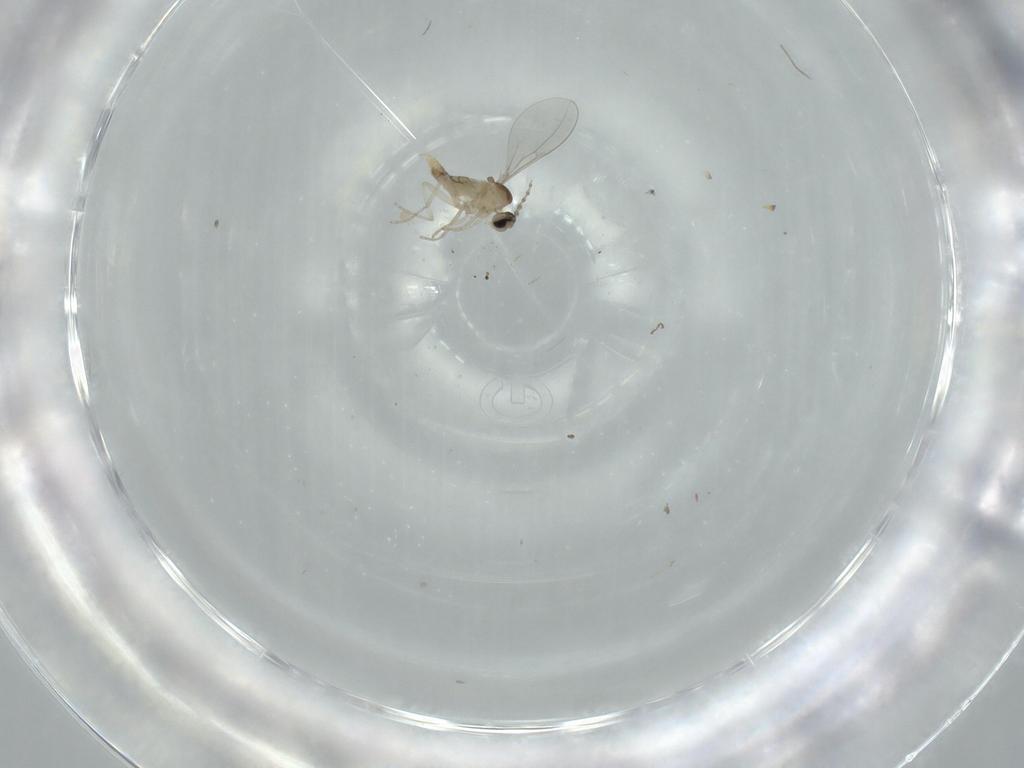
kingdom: Animalia
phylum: Arthropoda
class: Insecta
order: Diptera
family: Cecidomyiidae
